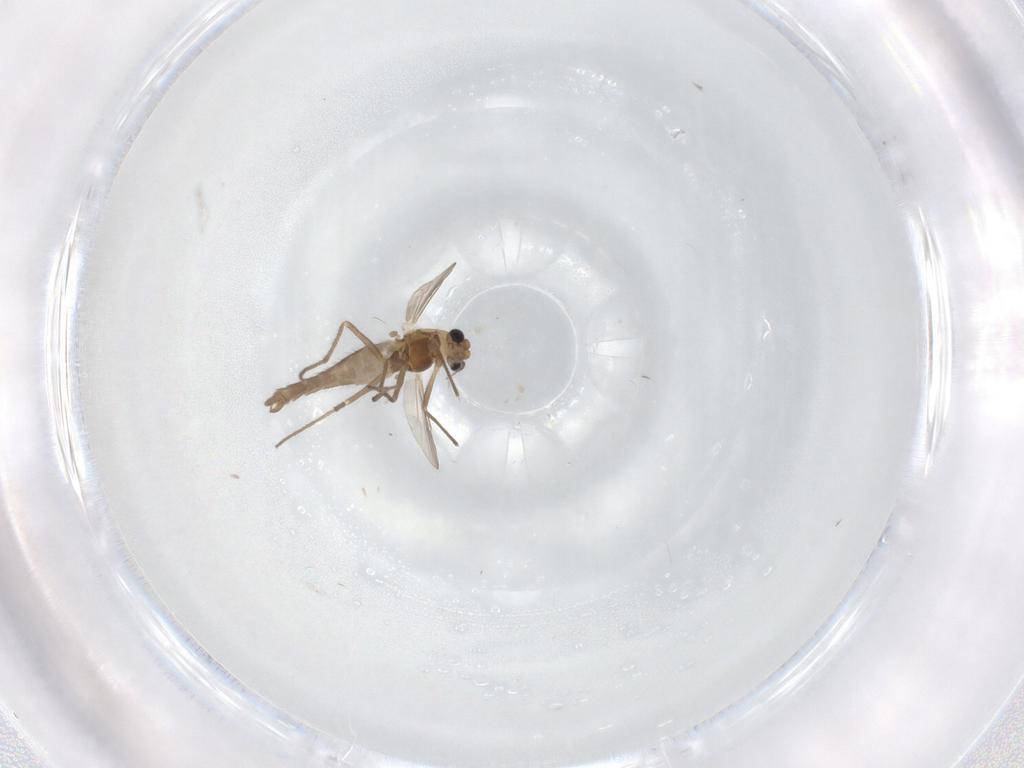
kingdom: Animalia
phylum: Arthropoda
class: Insecta
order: Diptera
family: Chironomidae
